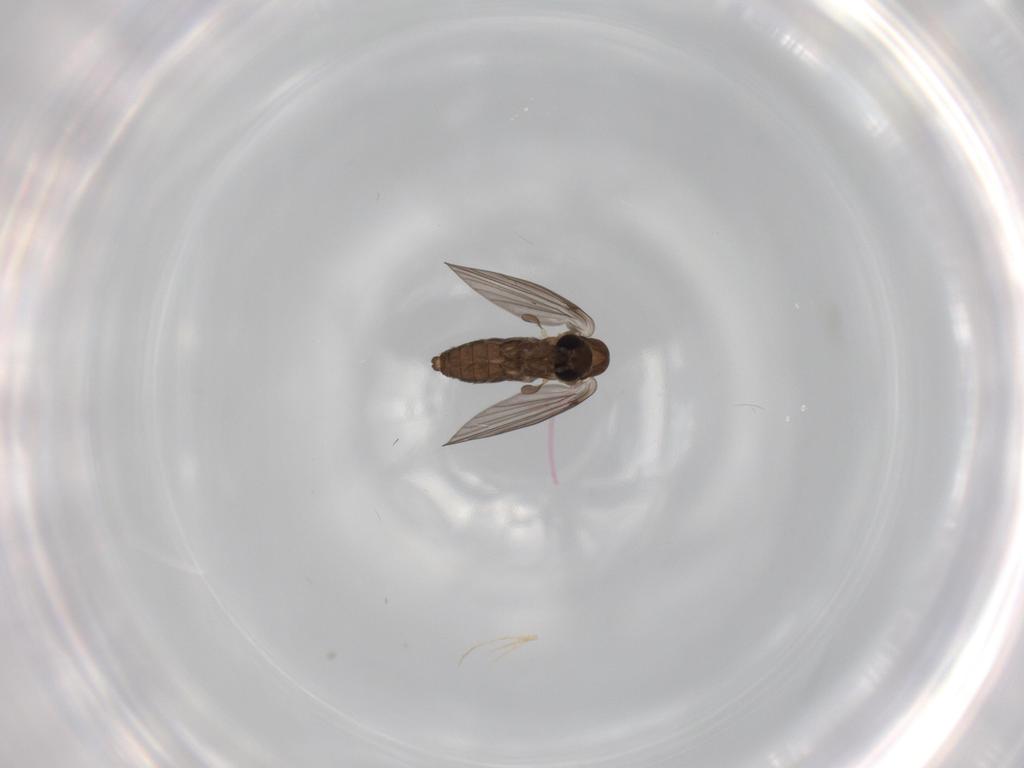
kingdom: Animalia
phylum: Arthropoda
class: Insecta
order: Diptera
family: Psychodidae
